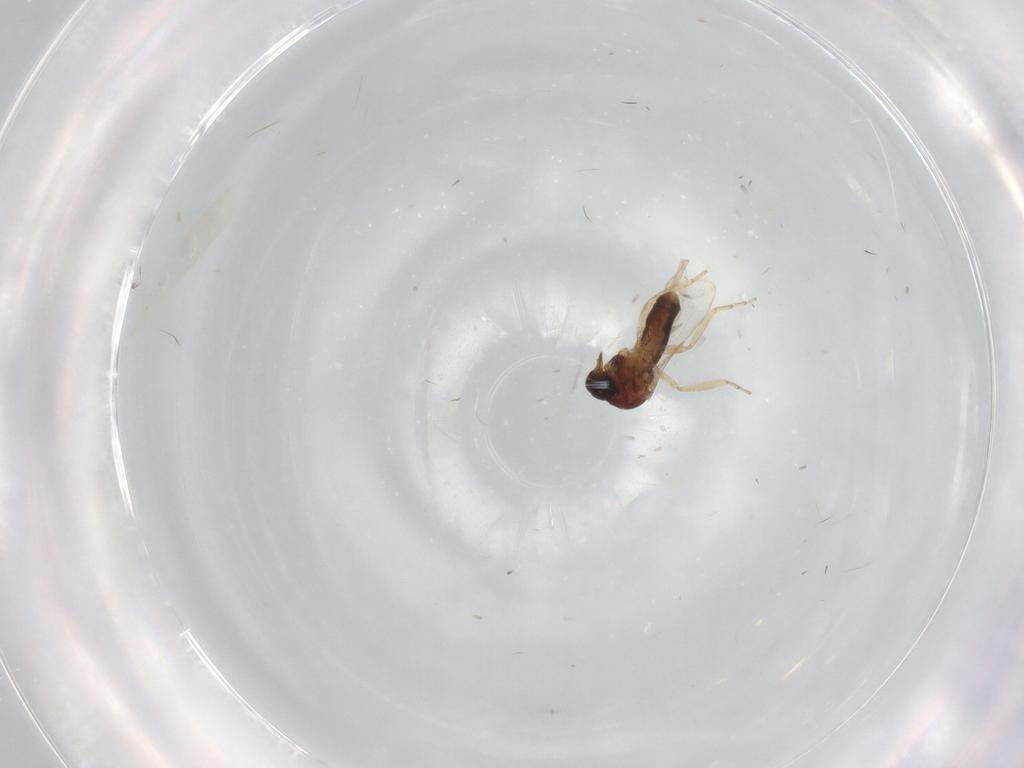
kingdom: Animalia
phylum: Arthropoda
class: Insecta
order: Diptera
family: Ceratopogonidae
